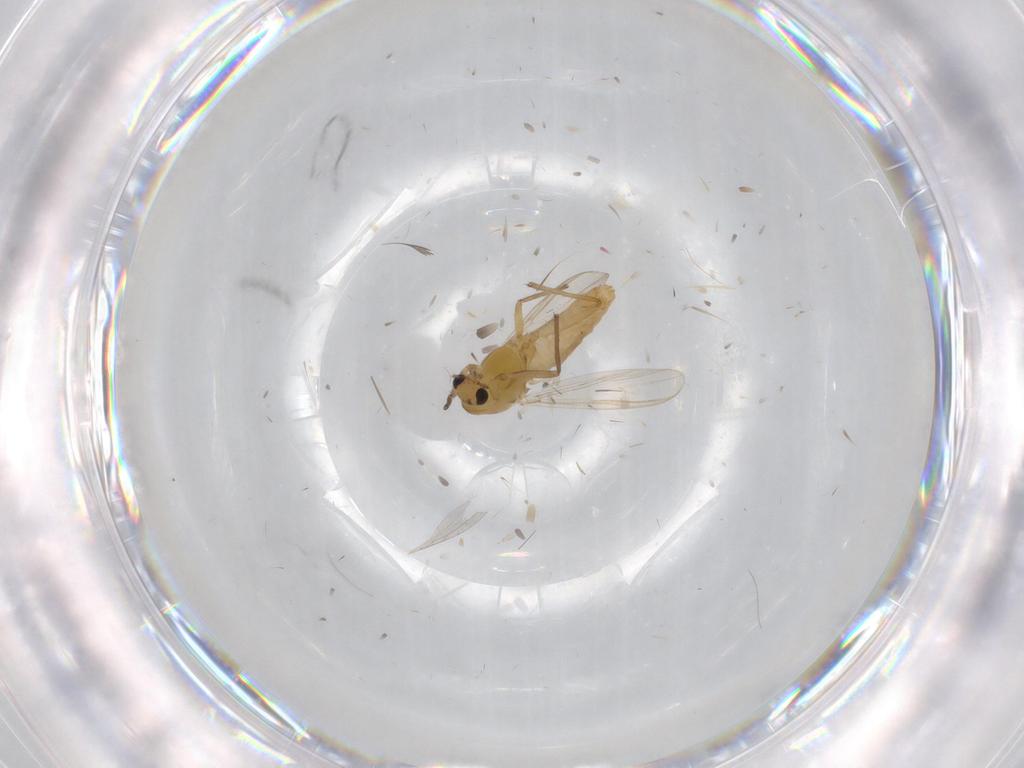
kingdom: Animalia
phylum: Arthropoda
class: Insecta
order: Diptera
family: Chironomidae
